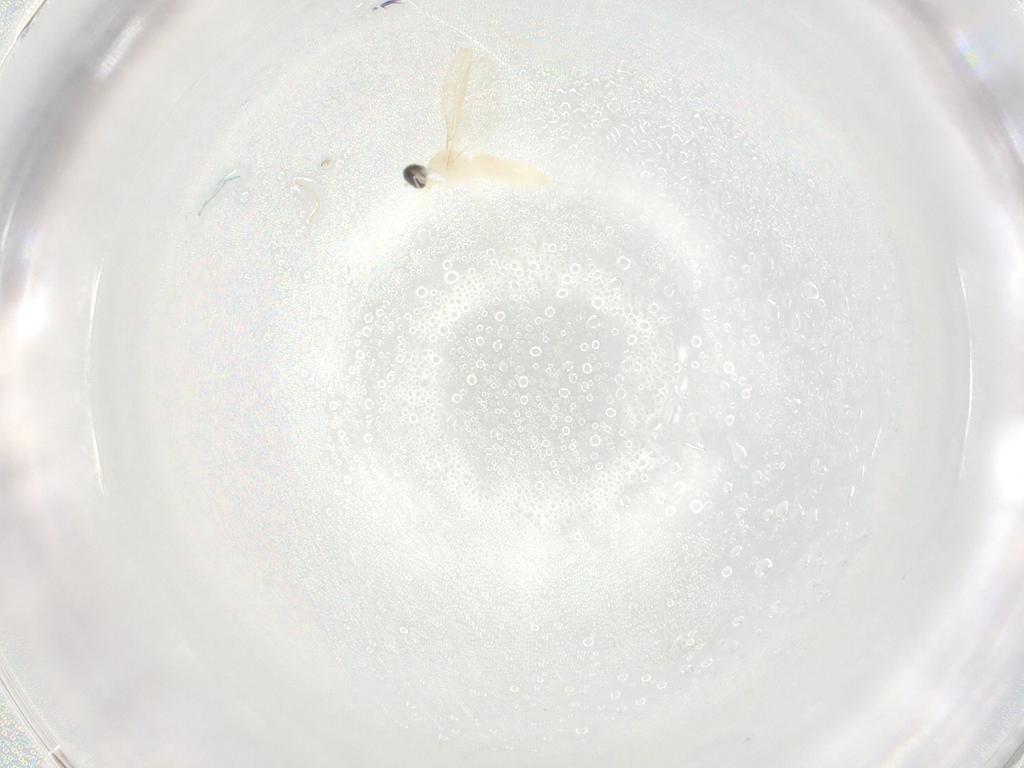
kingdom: Animalia
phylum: Arthropoda
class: Insecta
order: Diptera
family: Cecidomyiidae
